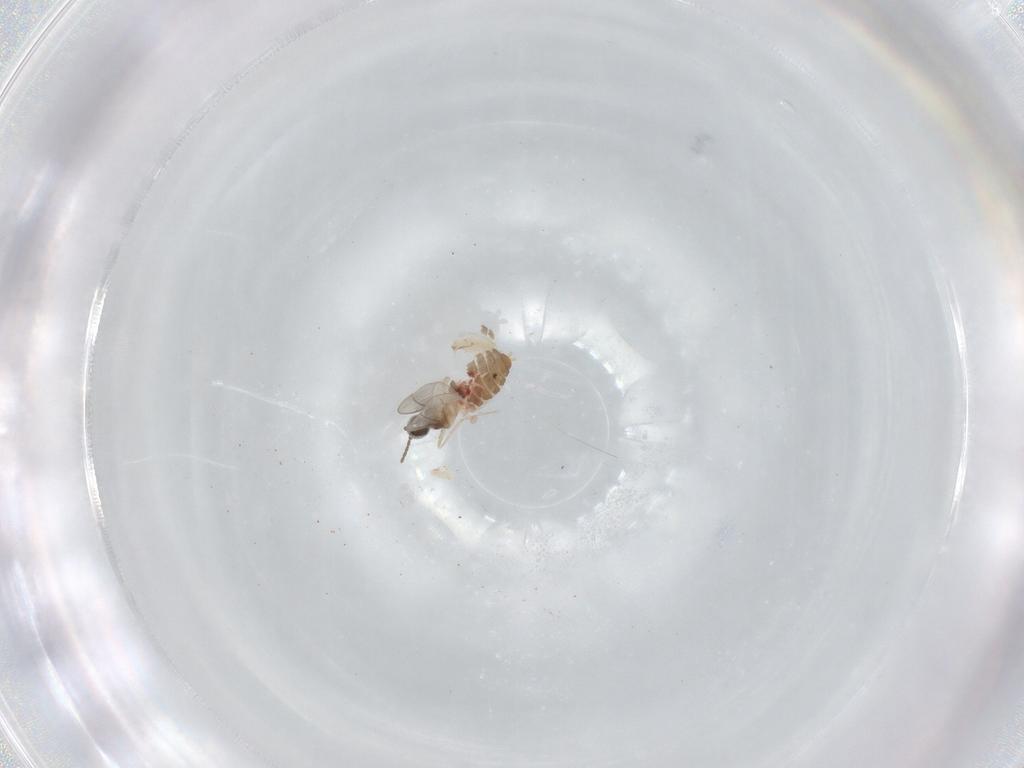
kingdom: Animalia
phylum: Arthropoda
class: Insecta
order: Diptera
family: Cecidomyiidae
